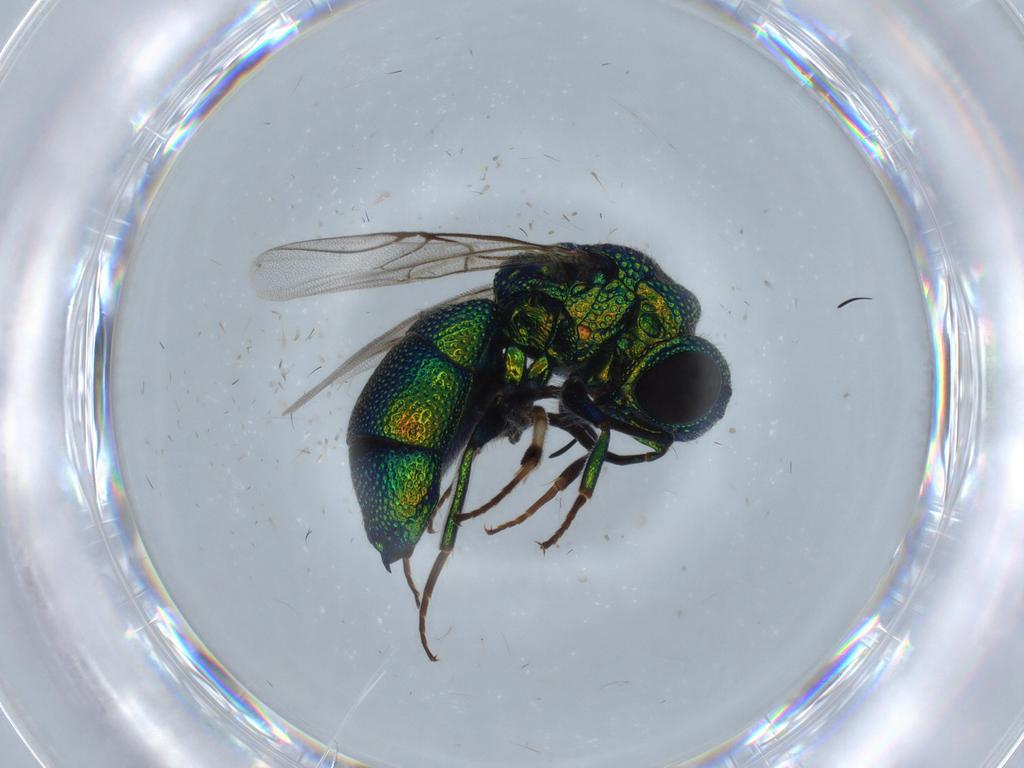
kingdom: Animalia
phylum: Arthropoda
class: Insecta
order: Hymenoptera
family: Chrysididae
